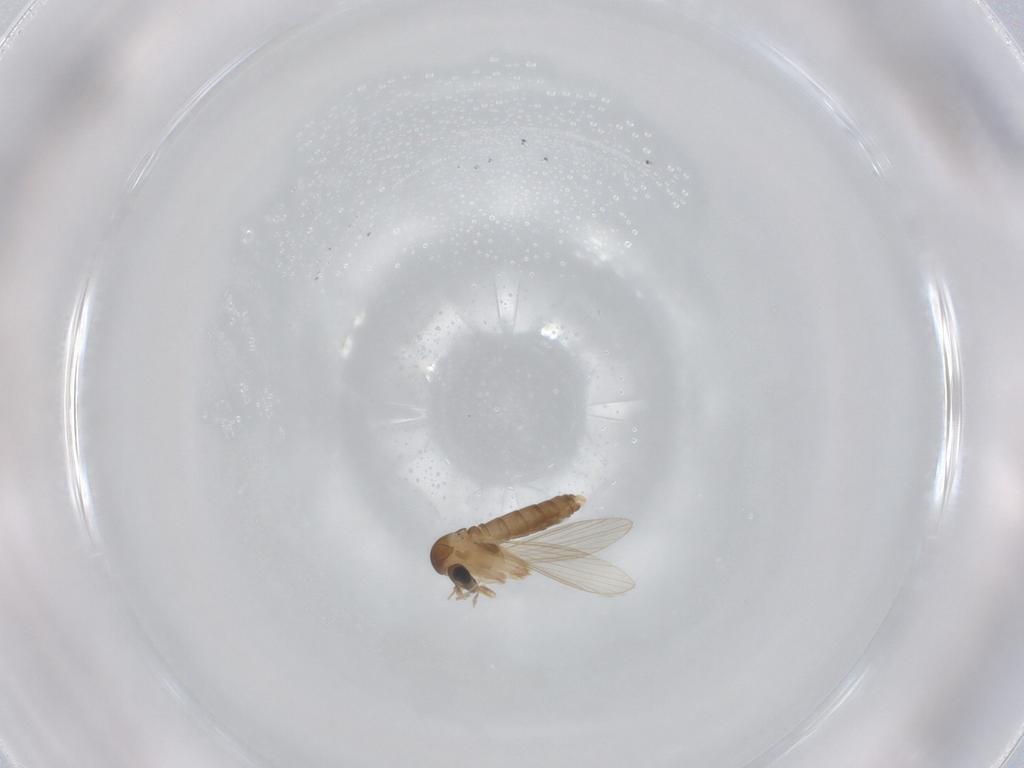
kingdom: Animalia
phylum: Arthropoda
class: Insecta
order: Diptera
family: Psychodidae
